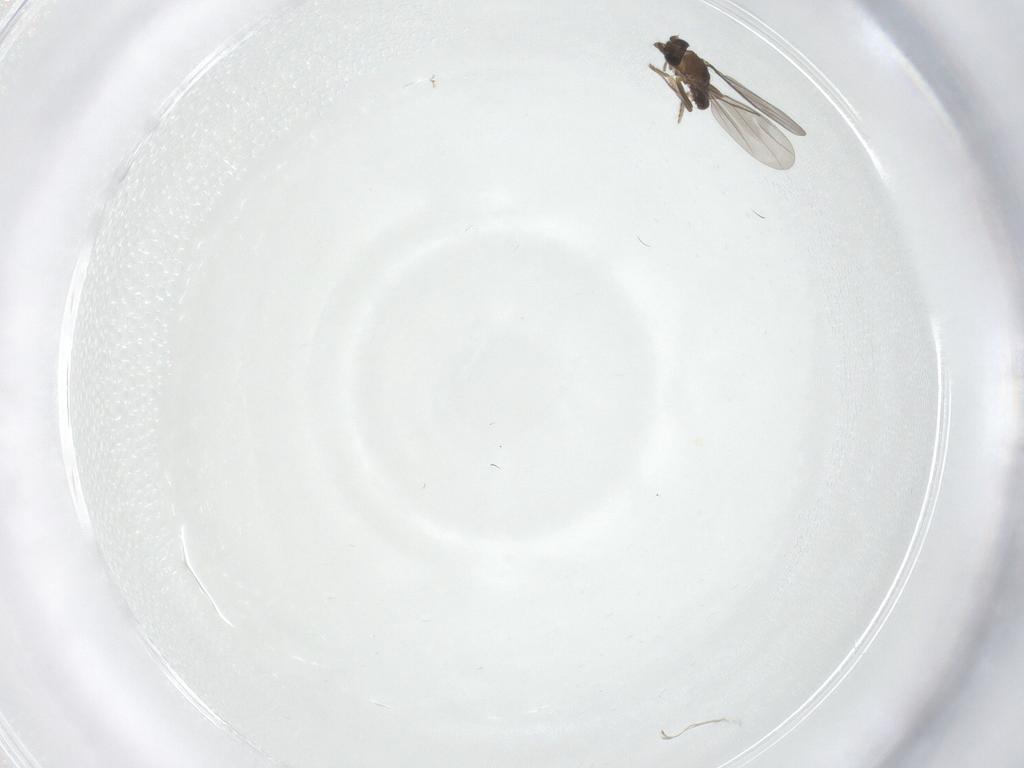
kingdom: Animalia
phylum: Arthropoda
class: Insecta
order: Diptera
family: Cecidomyiidae
